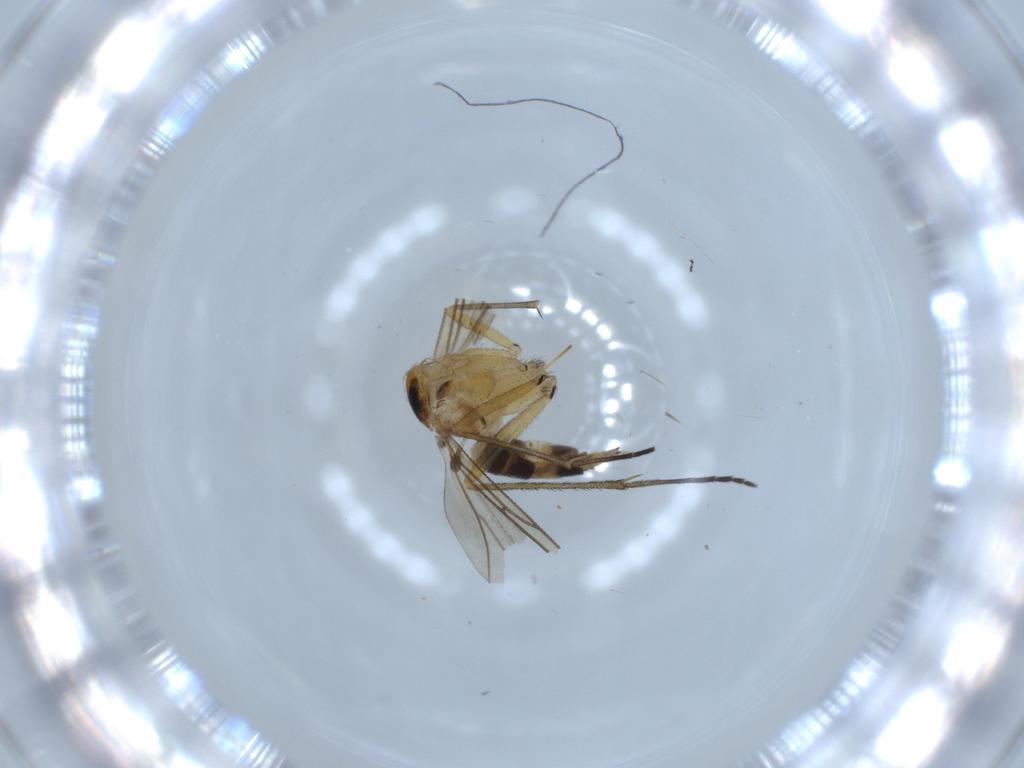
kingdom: Animalia
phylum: Arthropoda
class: Insecta
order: Diptera
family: Sciaridae
